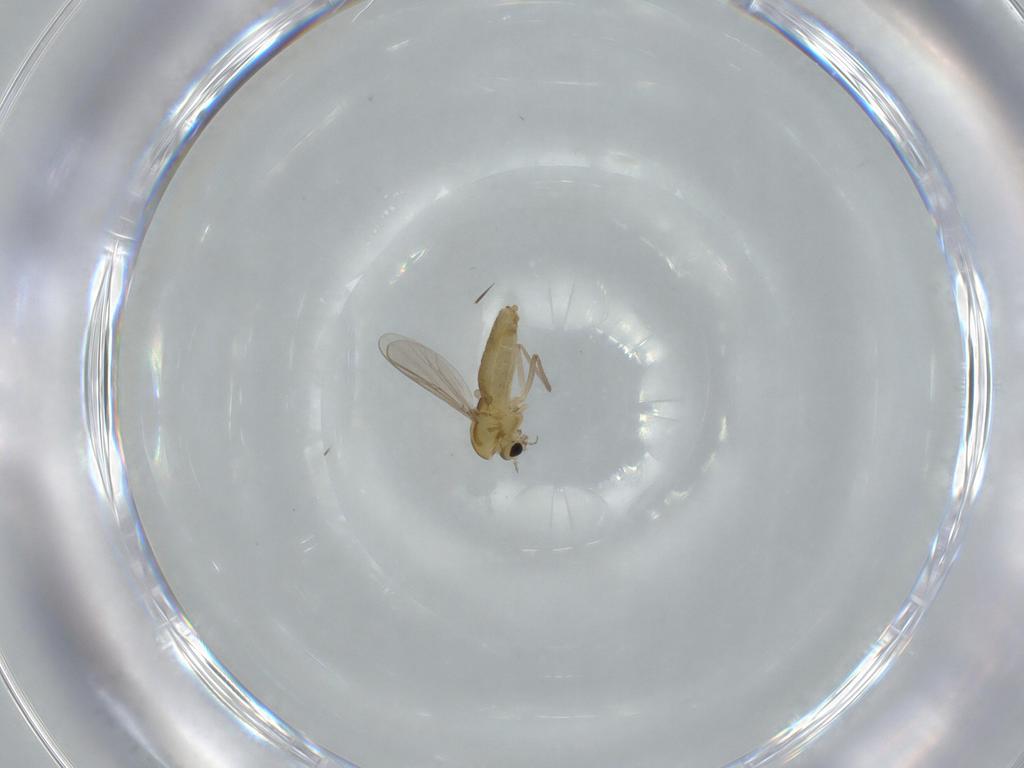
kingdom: Animalia
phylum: Arthropoda
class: Insecta
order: Diptera
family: Chironomidae
